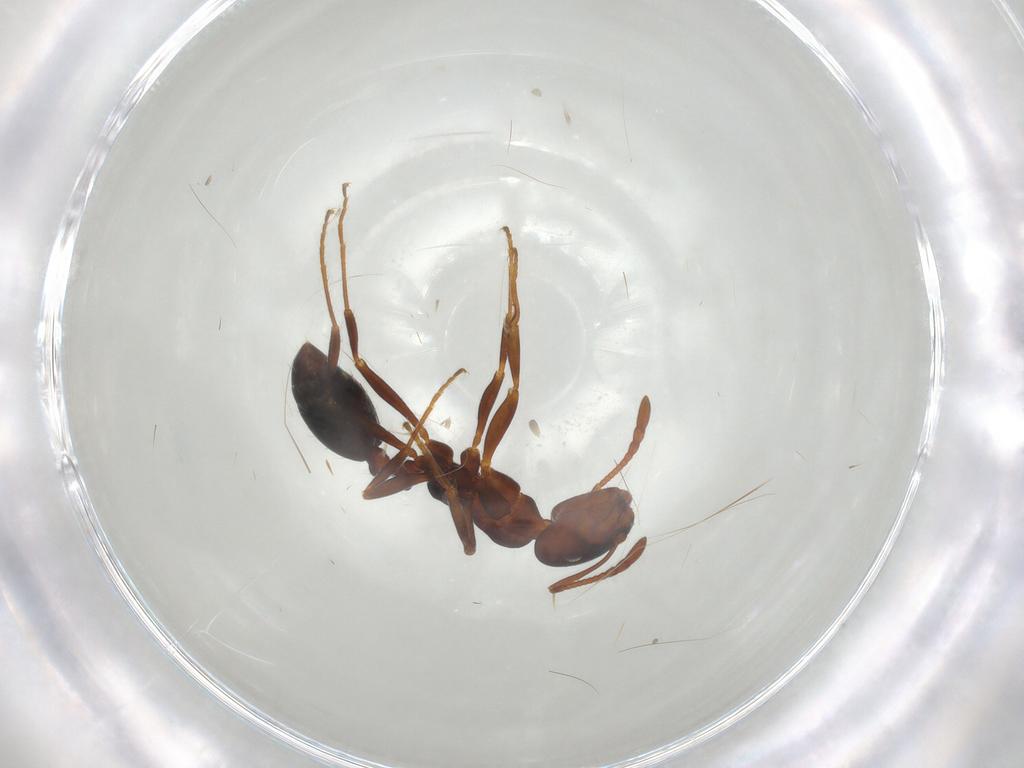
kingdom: Animalia
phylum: Arthropoda
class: Insecta
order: Hymenoptera
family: Formicidae
